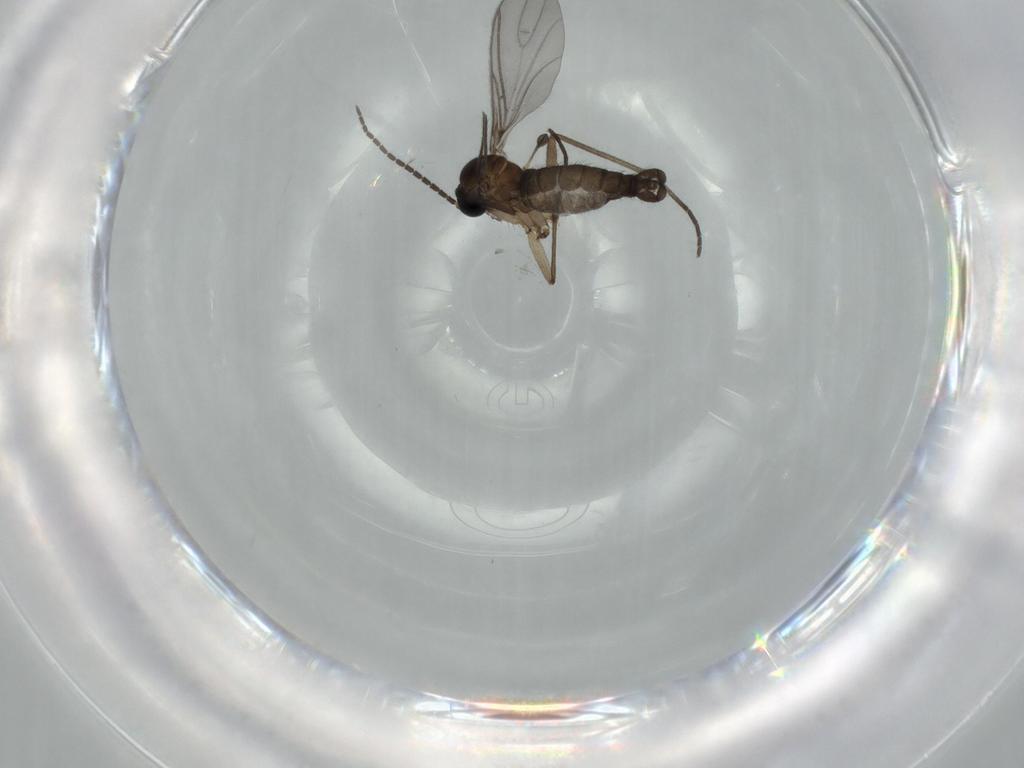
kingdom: Animalia
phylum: Arthropoda
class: Insecta
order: Diptera
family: Sciaridae
